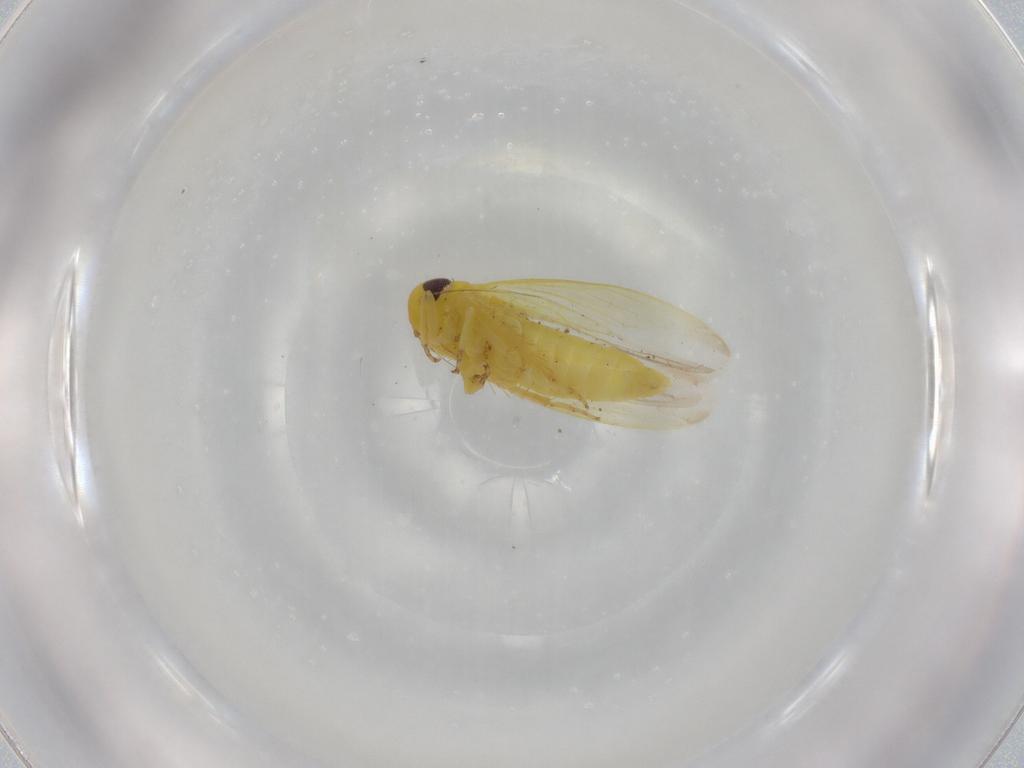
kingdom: Animalia
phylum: Arthropoda
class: Insecta
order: Hemiptera
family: Cicadellidae
